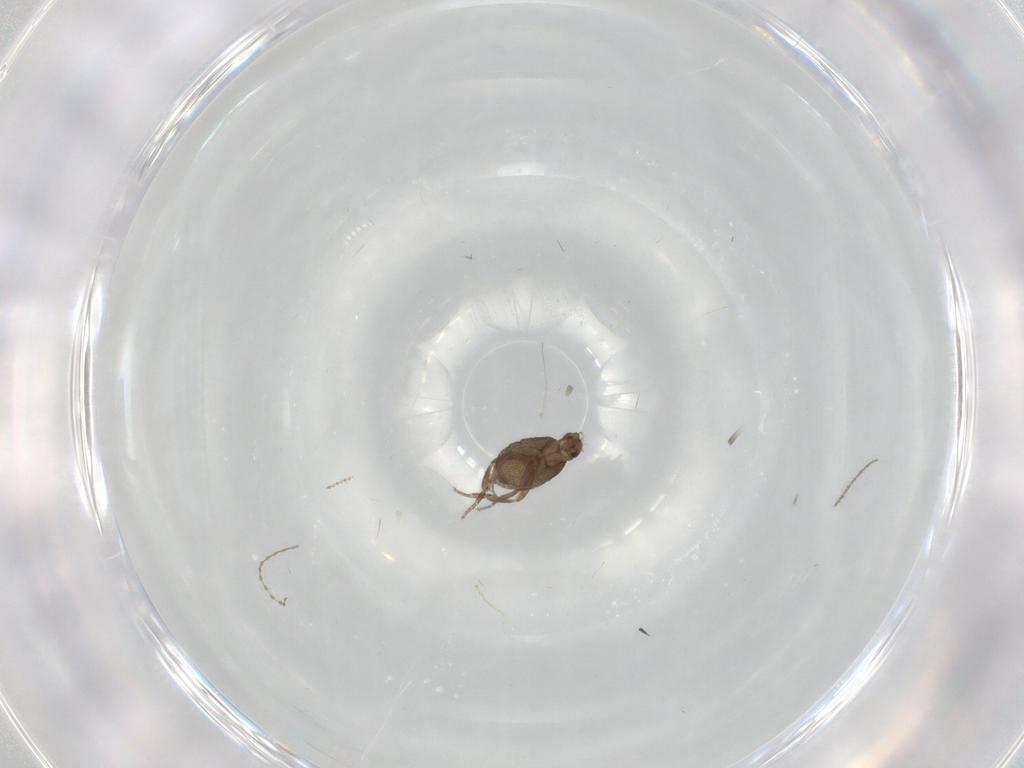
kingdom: Animalia
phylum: Arthropoda
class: Insecta
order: Diptera
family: Phoridae
